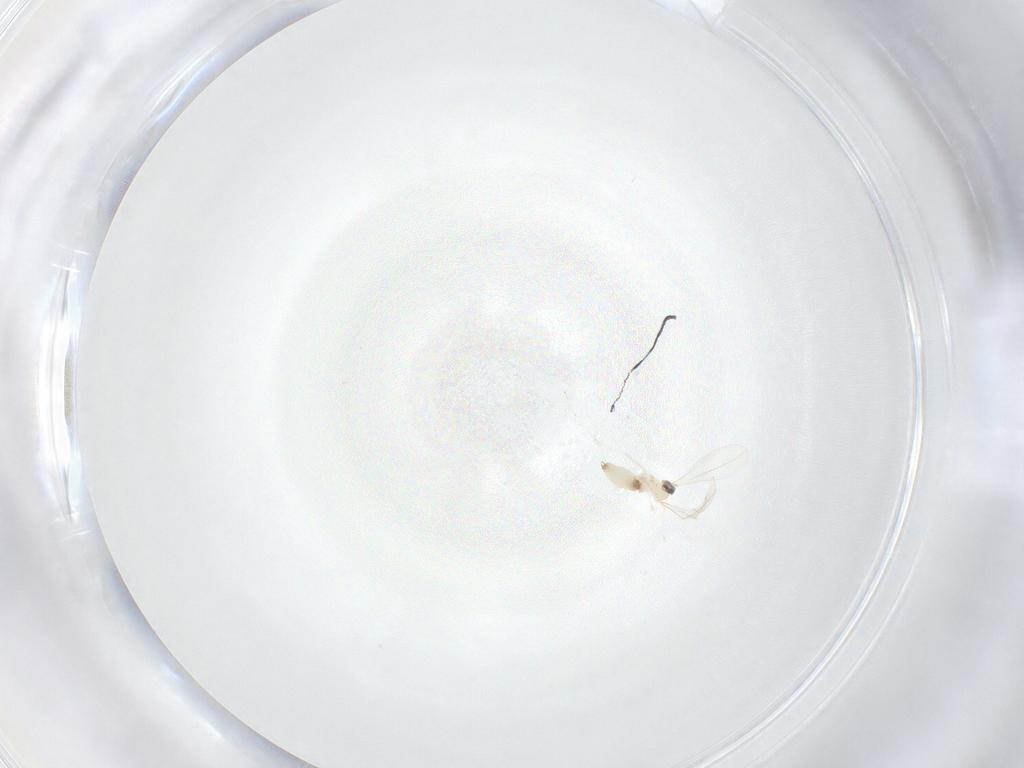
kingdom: Animalia
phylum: Arthropoda
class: Insecta
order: Diptera
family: Cecidomyiidae
